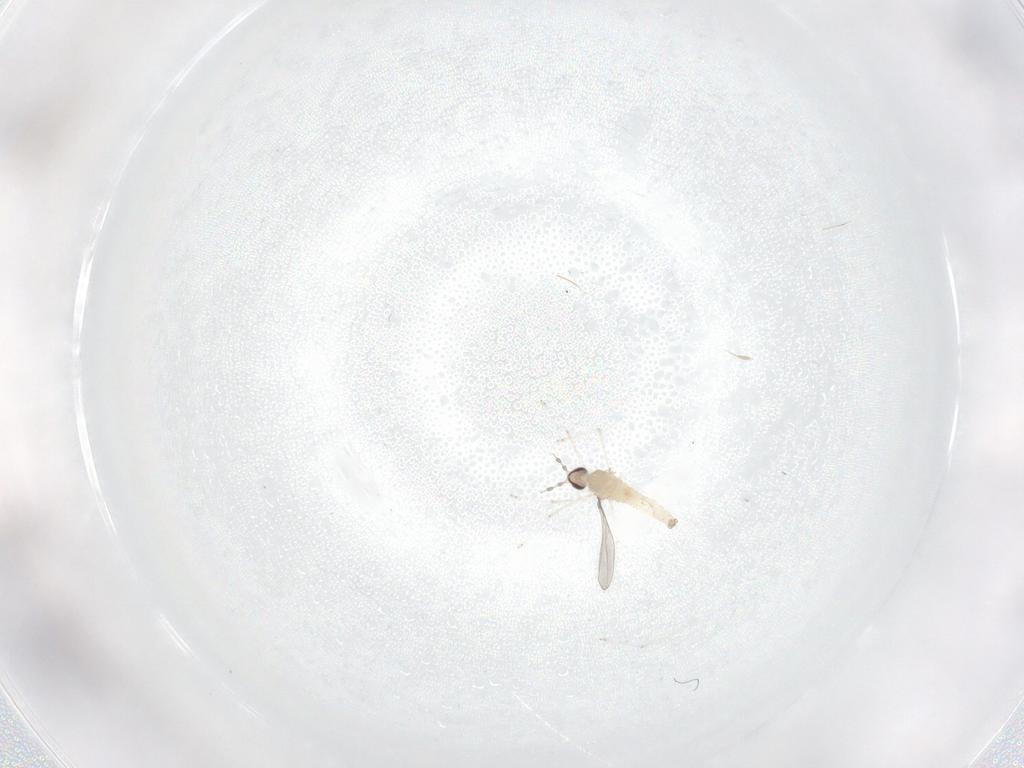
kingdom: Animalia
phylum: Arthropoda
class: Insecta
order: Diptera
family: Cecidomyiidae
